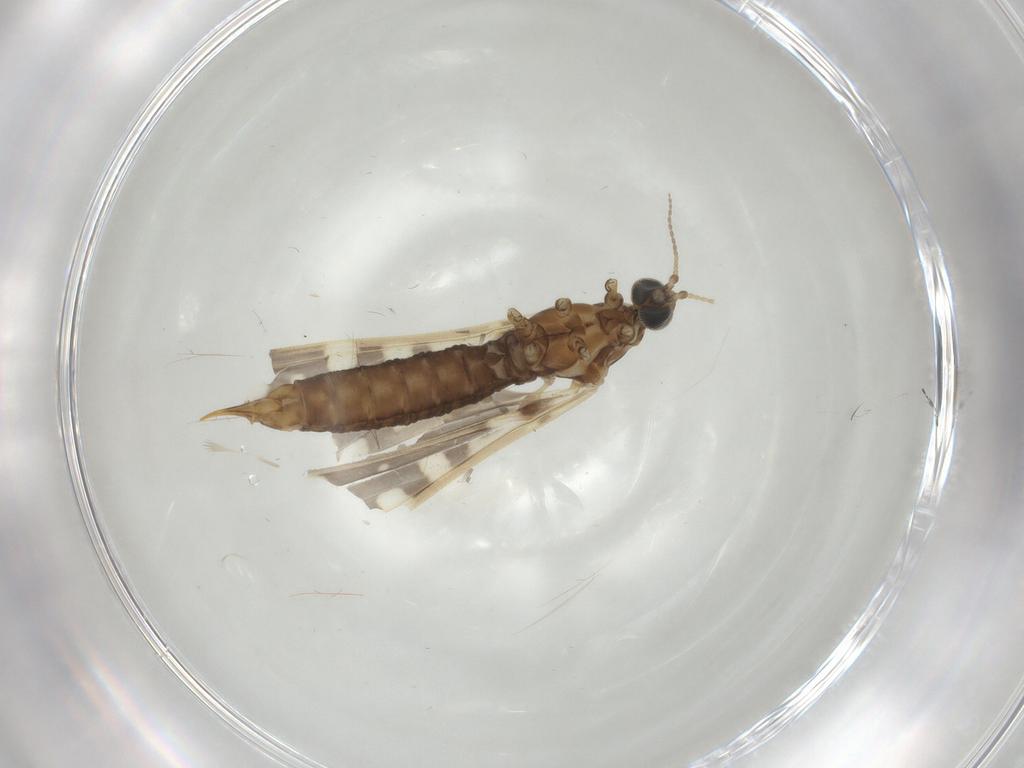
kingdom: Animalia
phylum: Arthropoda
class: Insecta
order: Diptera
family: Limoniidae
